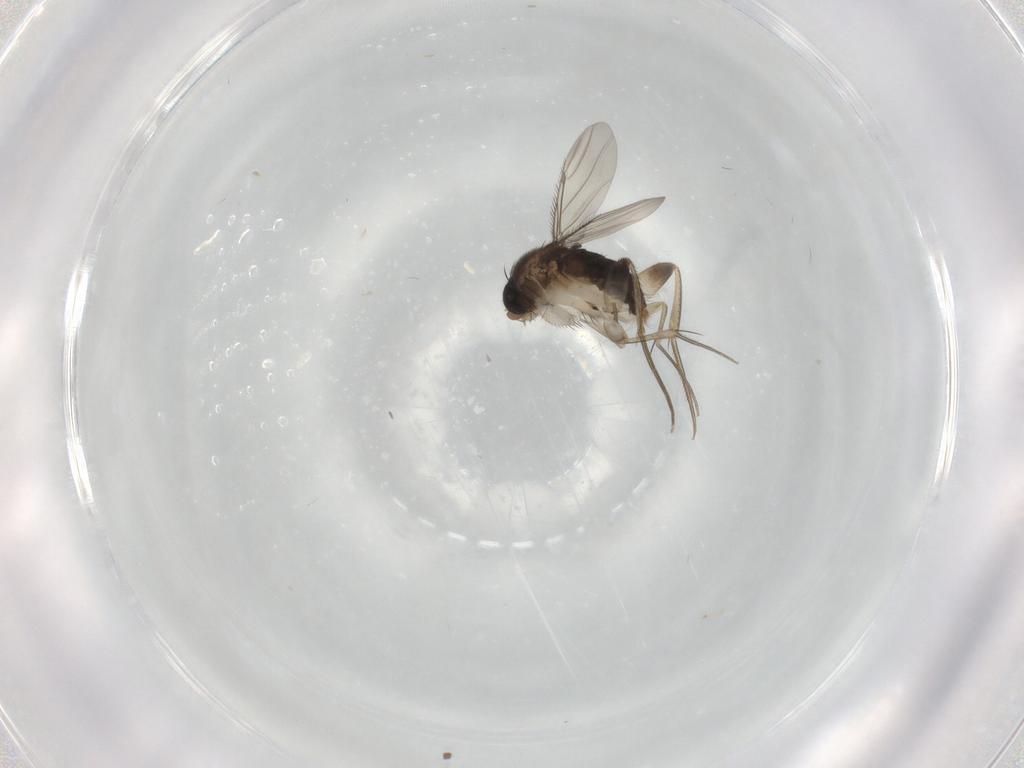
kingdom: Animalia
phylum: Arthropoda
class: Insecta
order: Diptera
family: Phoridae
